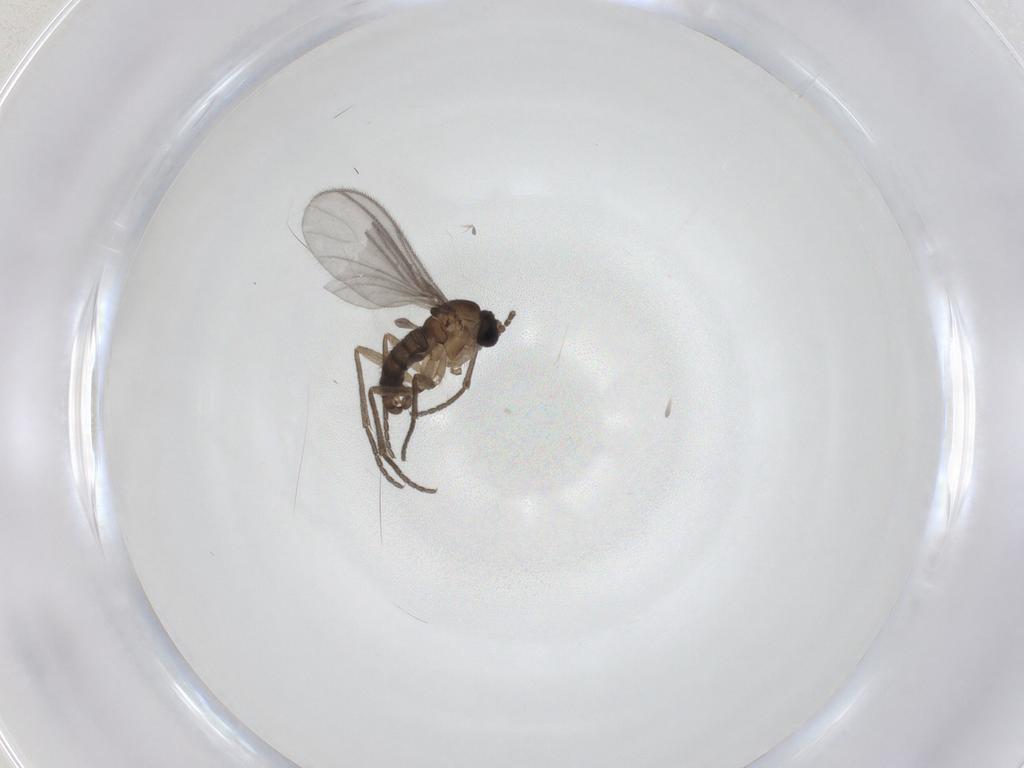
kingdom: Animalia
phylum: Arthropoda
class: Insecta
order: Diptera
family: Sciaridae
